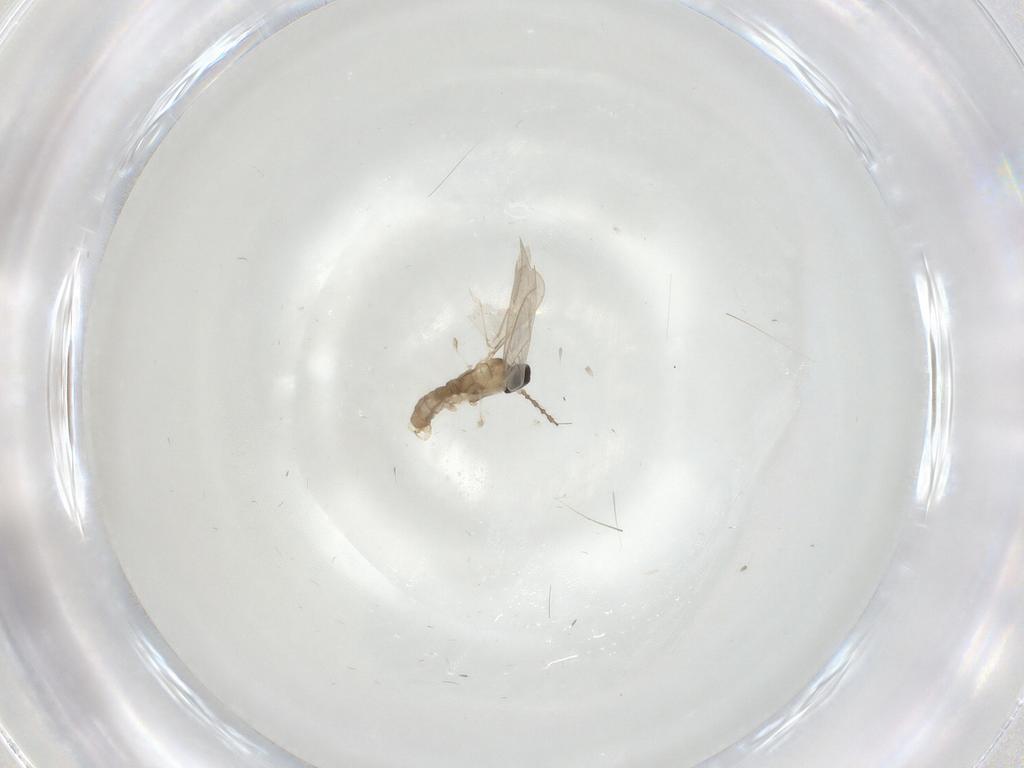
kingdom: Animalia
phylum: Arthropoda
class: Insecta
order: Diptera
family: Cecidomyiidae
